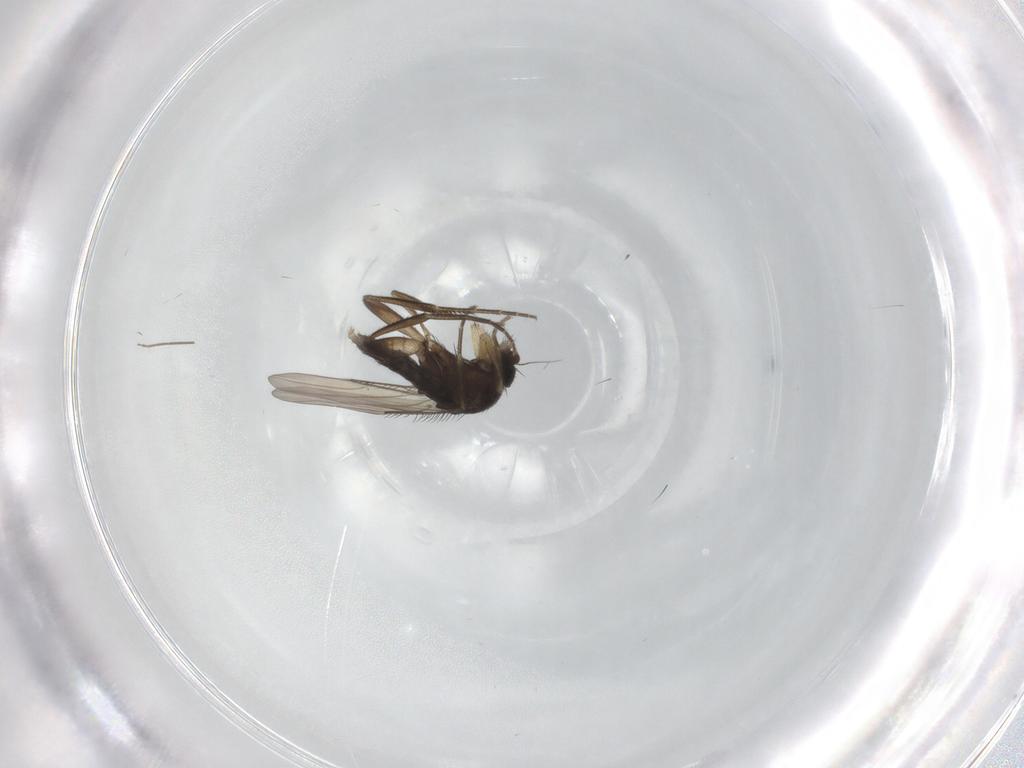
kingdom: Animalia
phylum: Arthropoda
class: Insecta
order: Diptera
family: Phoridae
